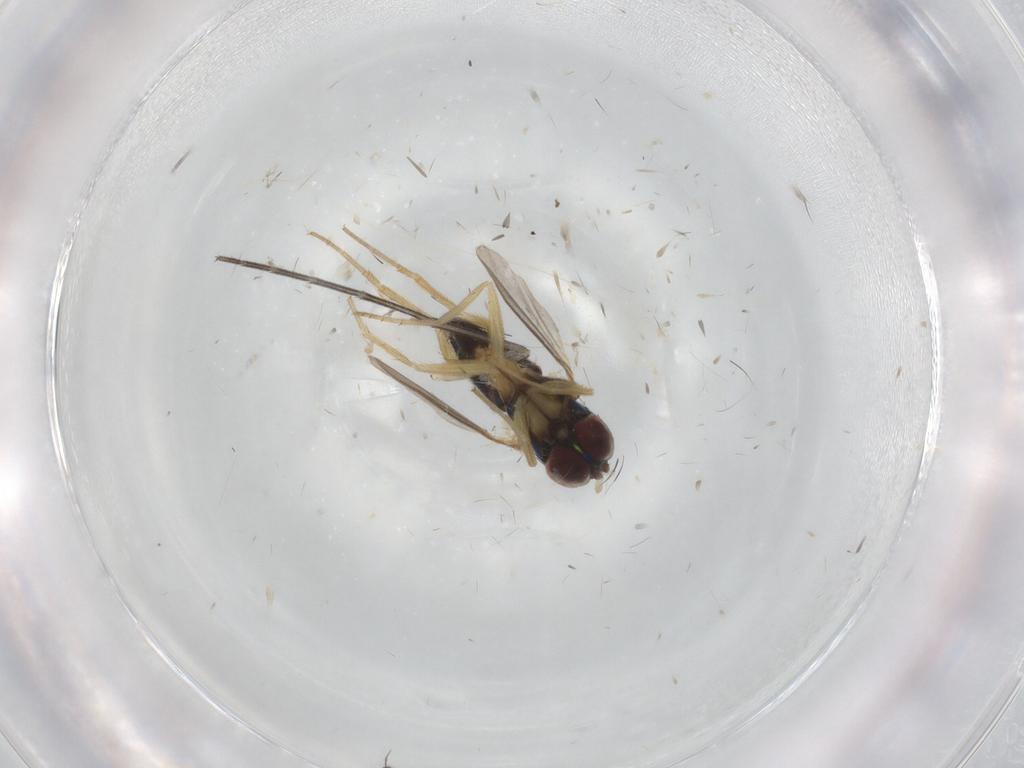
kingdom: Animalia
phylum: Arthropoda
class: Insecta
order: Diptera
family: Dolichopodidae
